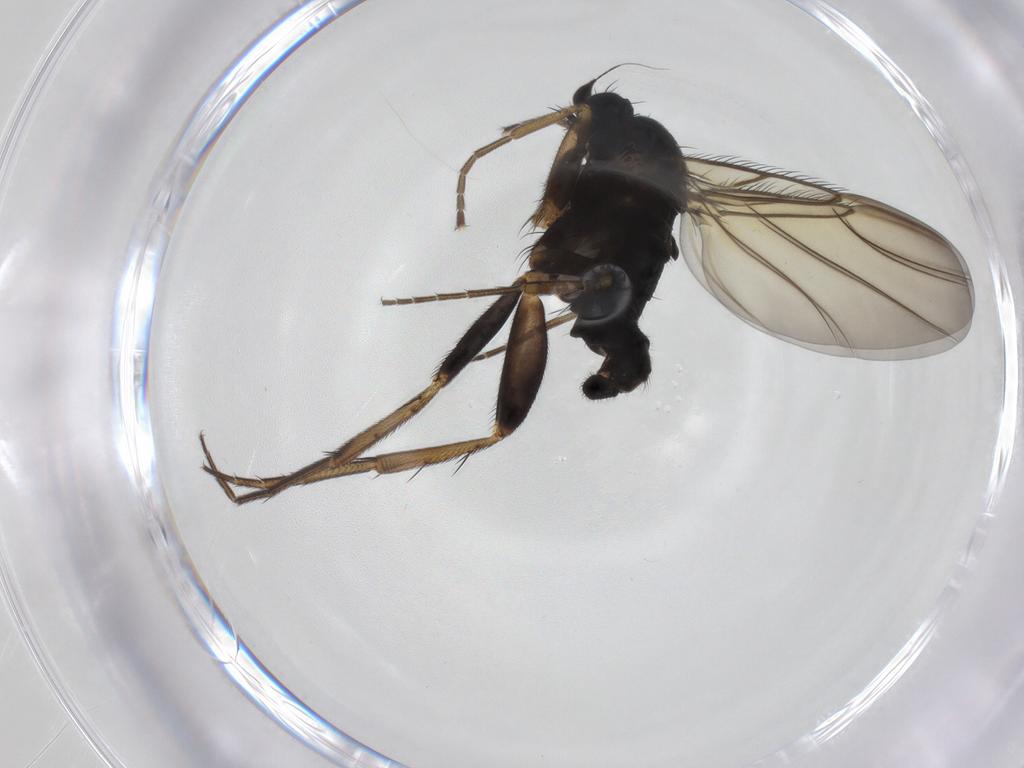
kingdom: Animalia
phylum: Arthropoda
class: Insecta
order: Diptera
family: Phoridae
